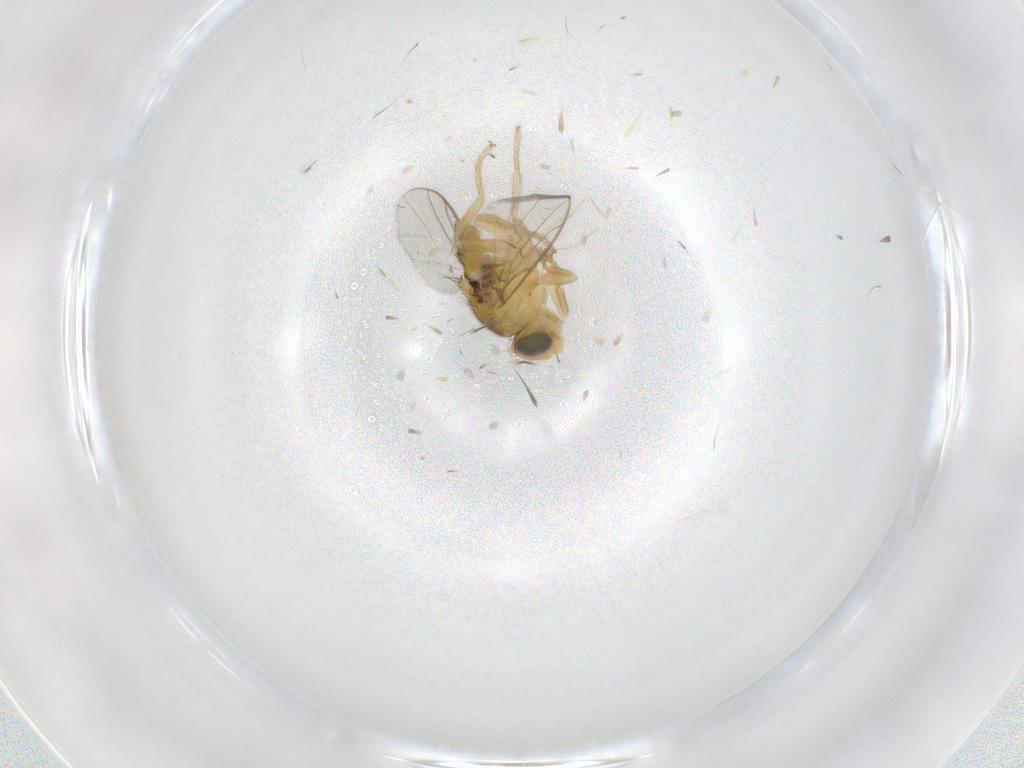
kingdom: Animalia
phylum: Arthropoda
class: Insecta
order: Diptera
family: Chloropidae
